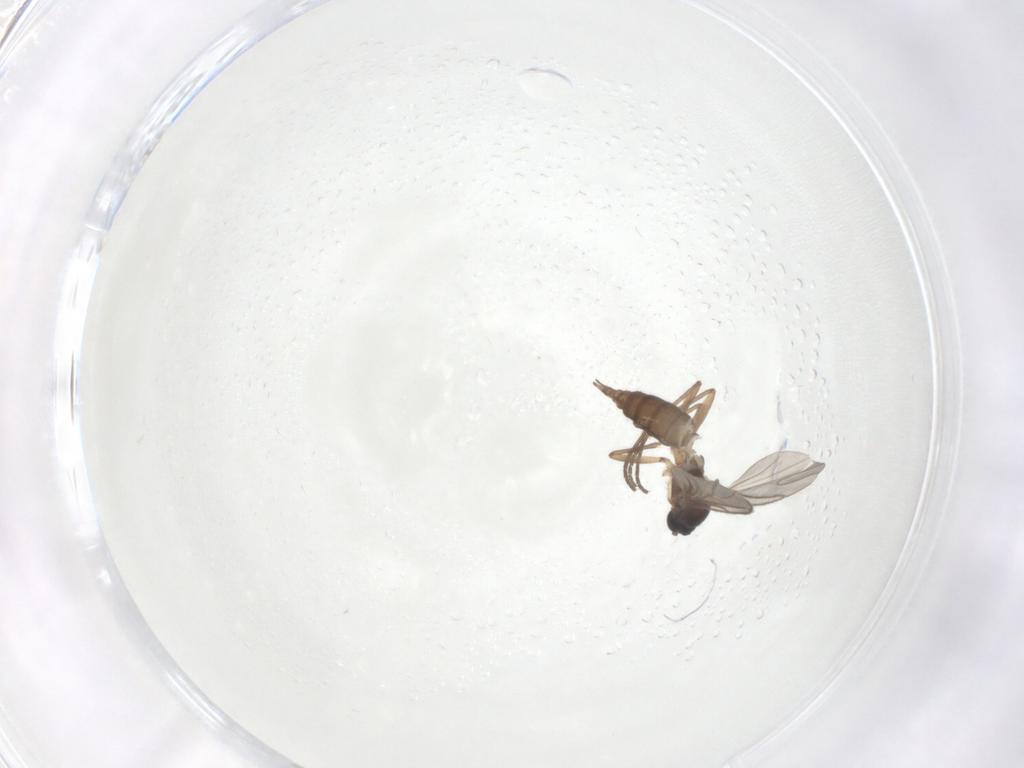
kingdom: Animalia
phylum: Arthropoda
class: Insecta
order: Diptera
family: Sciaridae
